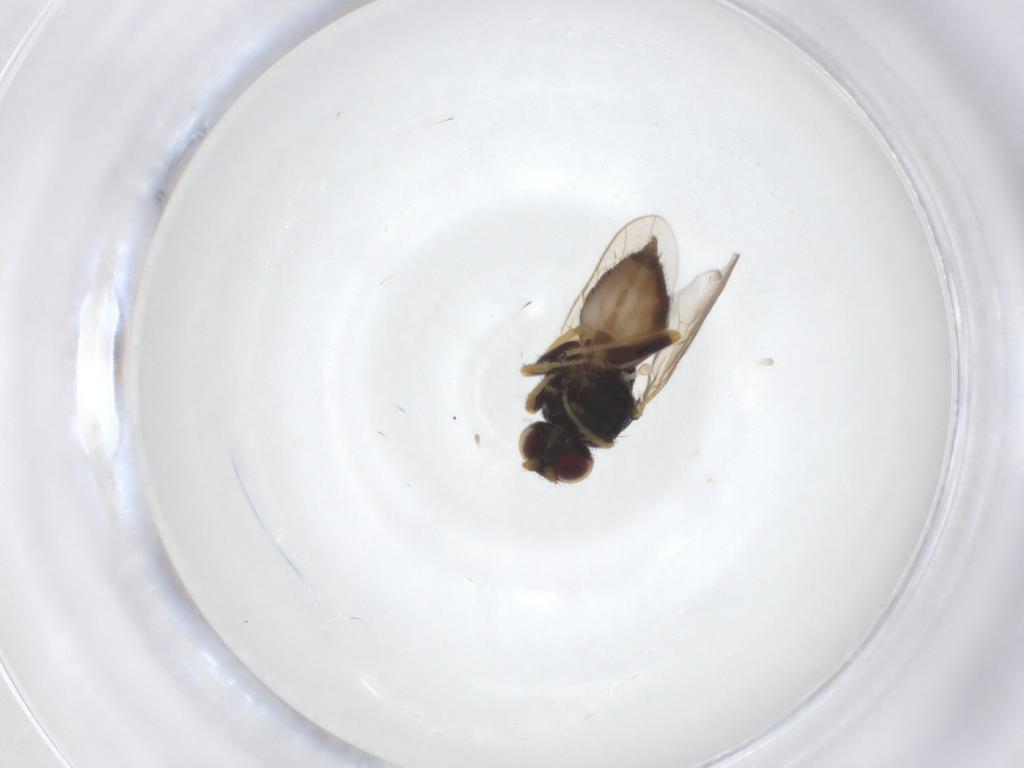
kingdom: Animalia
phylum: Arthropoda
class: Insecta
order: Diptera
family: Chloropidae
